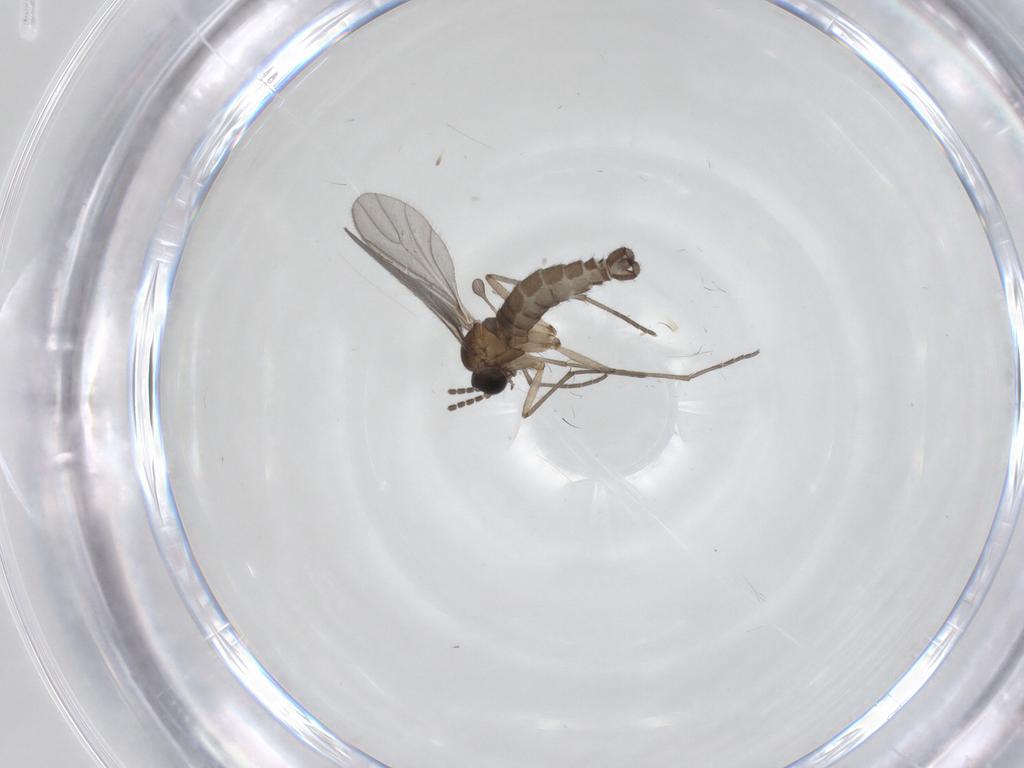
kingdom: Animalia
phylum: Arthropoda
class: Insecta
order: Diptera
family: Sciaridae
